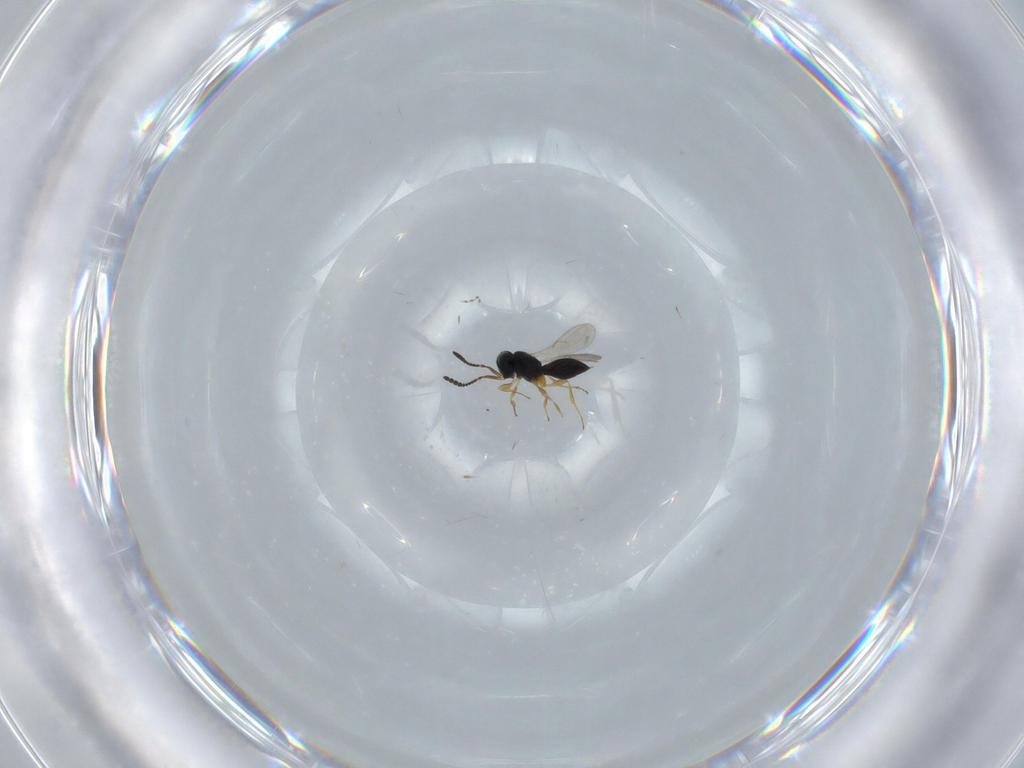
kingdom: Animalia
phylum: Arthropoda
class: Insecta
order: Hymenoptera
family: Scelionidae
